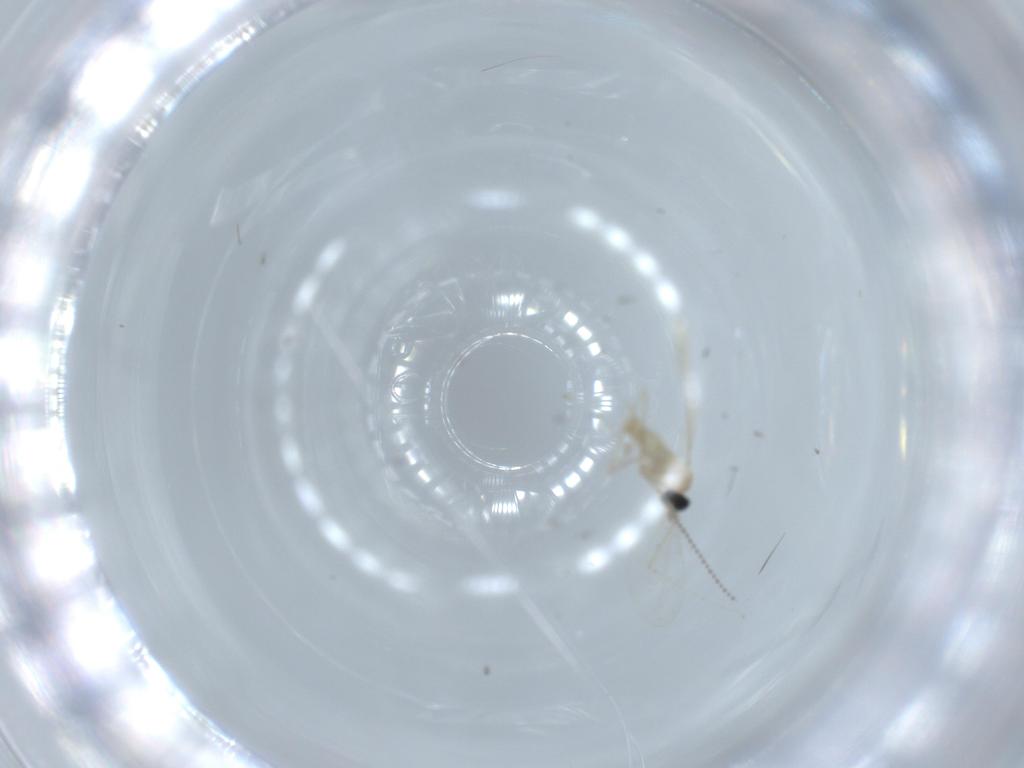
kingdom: Animalia
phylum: Arthropoda
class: Insecta
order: Diptera
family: Cecidomyiidae
